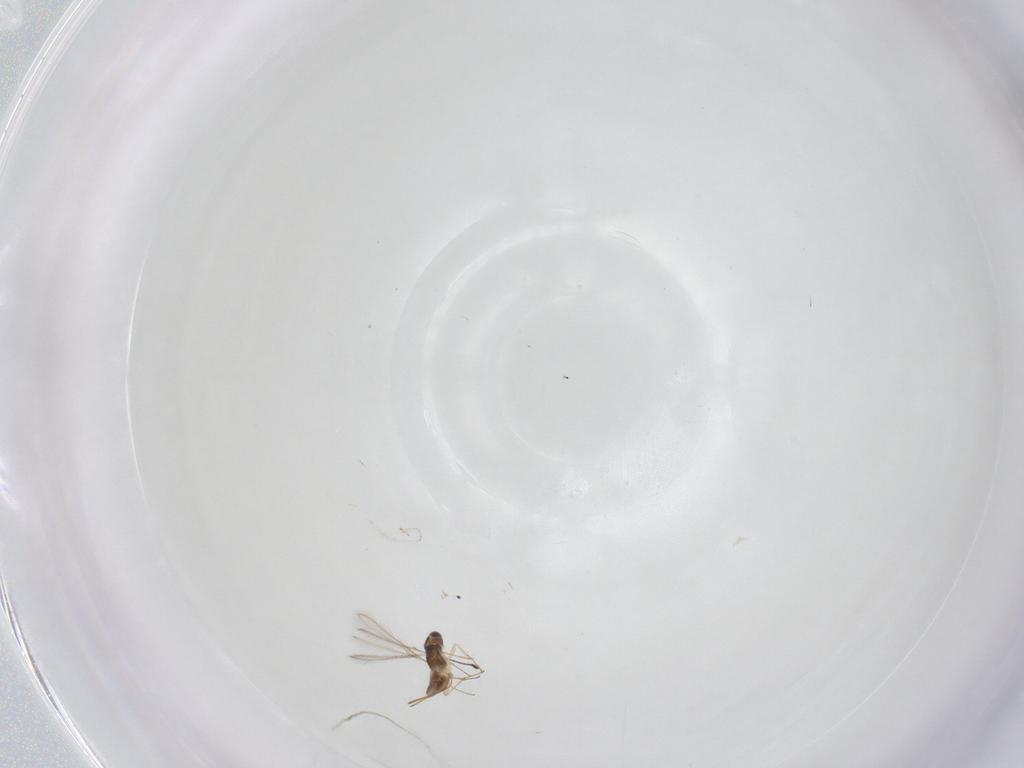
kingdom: Animalia
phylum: Arthropoda
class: Insecta
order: Hymenoptera
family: Mymaridae
